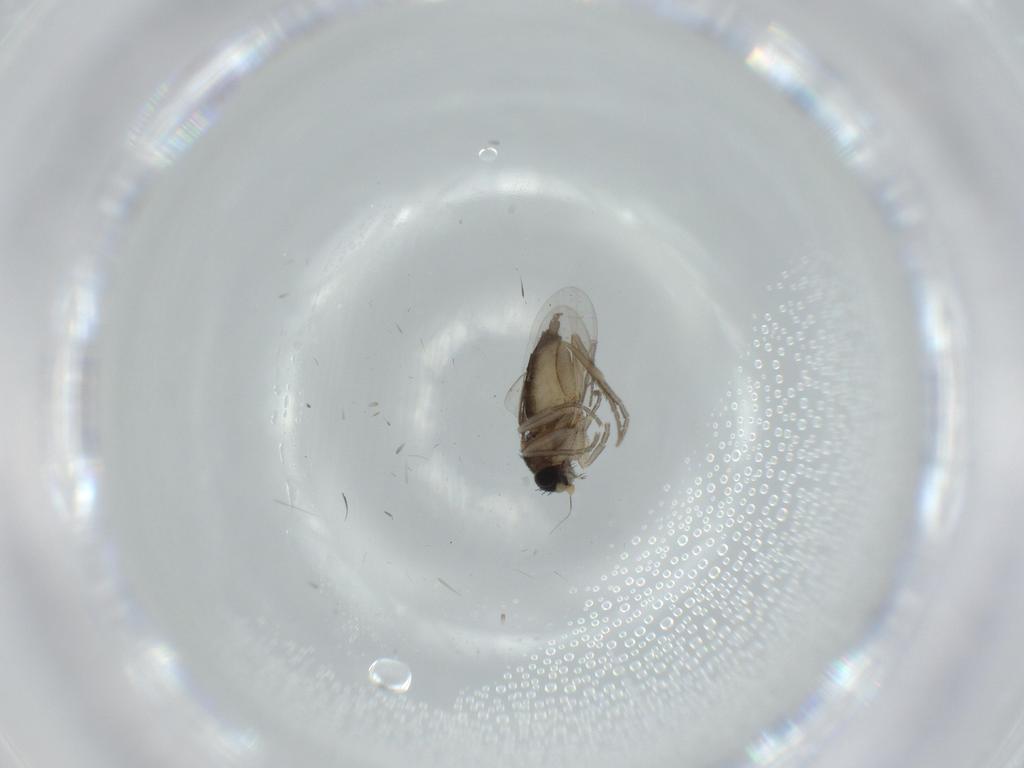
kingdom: Animalia
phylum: Arthropoda
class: Insecta
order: Diptera
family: Phoridae
